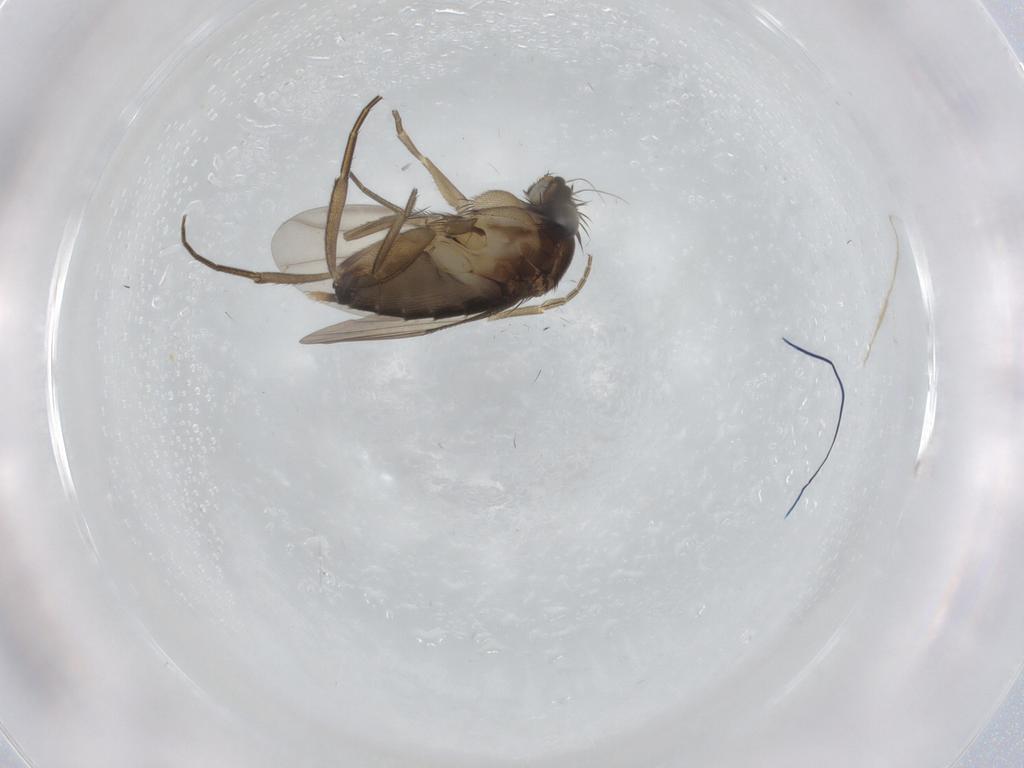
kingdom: Animalia
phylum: Arthropoda
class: Insecta
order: Diptera
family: Phoridae
